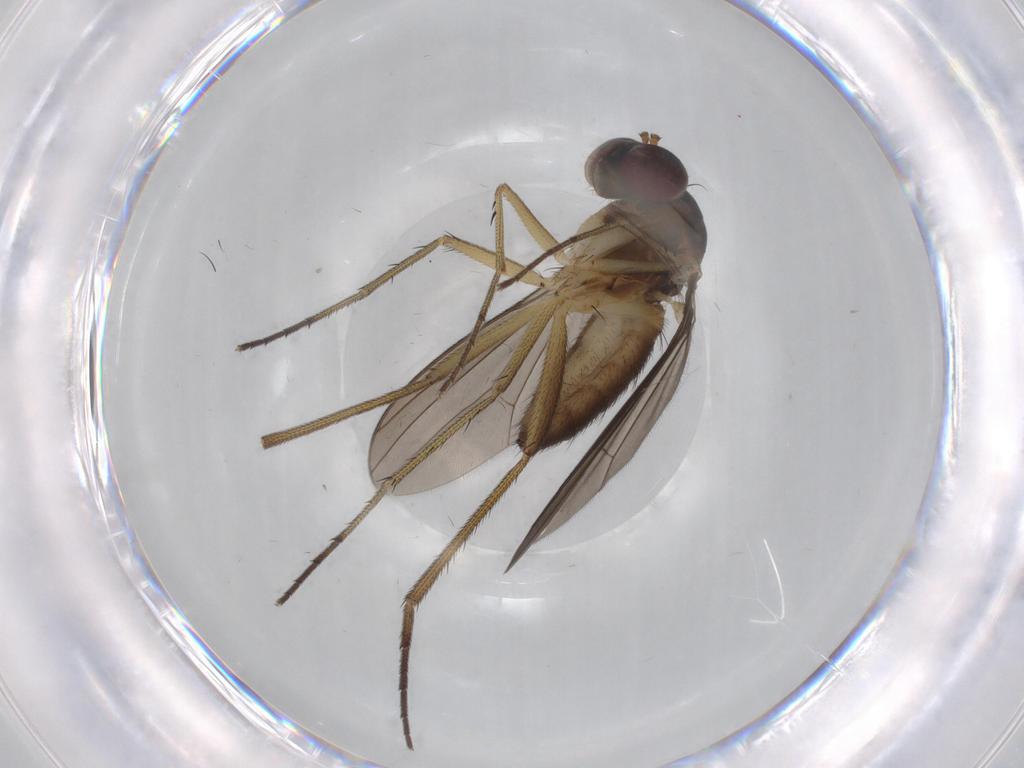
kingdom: Animalia
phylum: Arthropoda
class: Insecta
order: Diptera
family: Dolichopodidae
